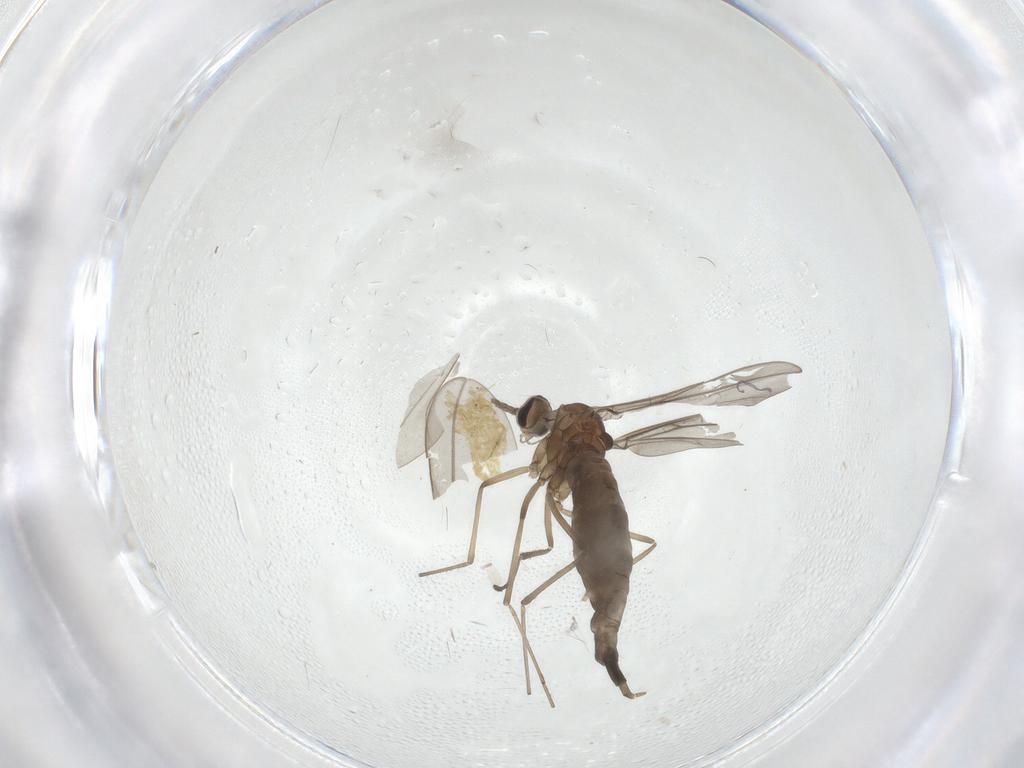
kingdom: Animalia
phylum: Arthropoda
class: Insecta
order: Diptera
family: Cecidomyiidae
